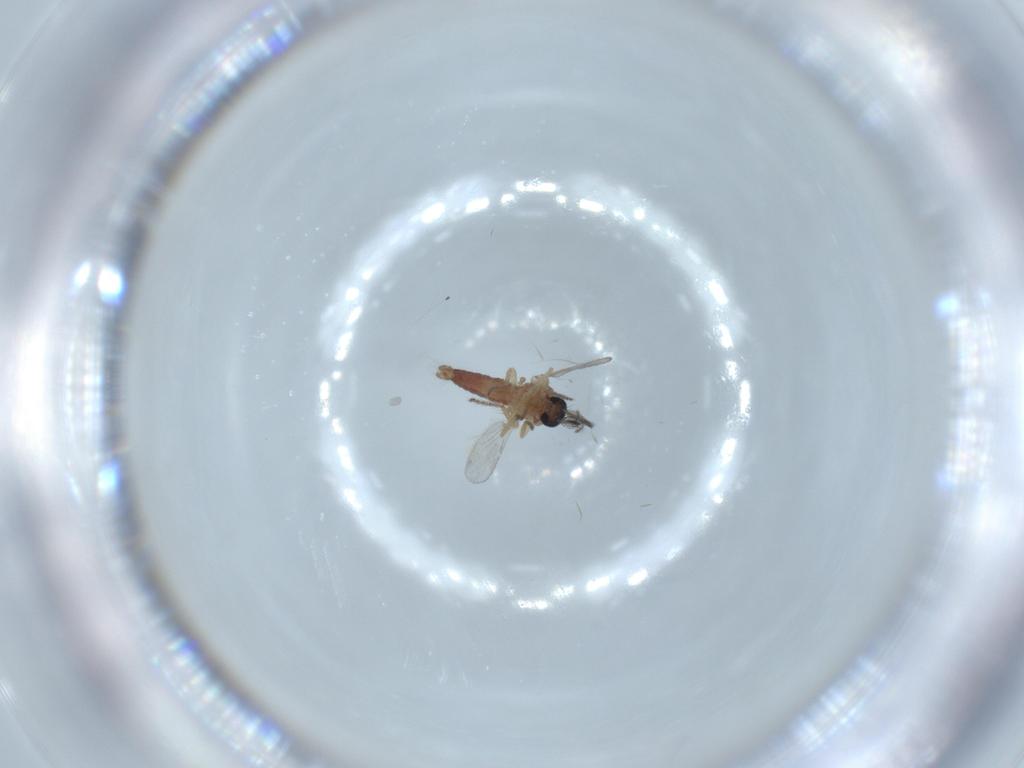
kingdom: Animalia
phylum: Arthropoda
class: Insecta
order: Diptera
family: Ceratopogonidae
